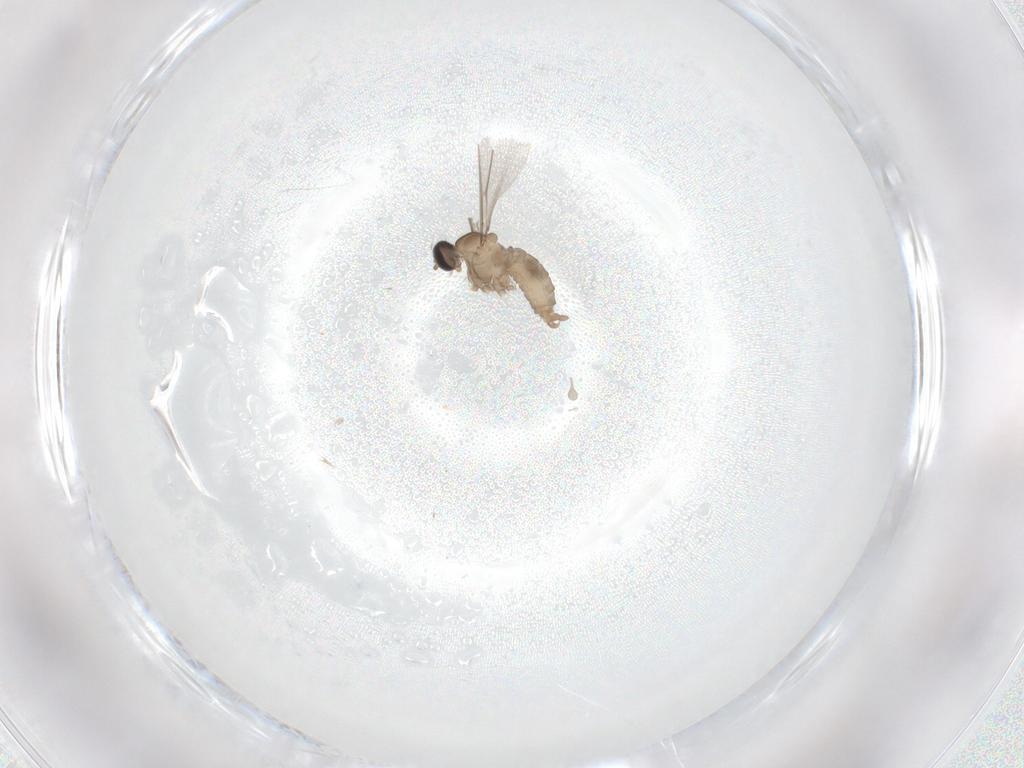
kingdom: Animalia
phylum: Arthropoda
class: Insecta
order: Diptera
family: Cecidomyiidae
